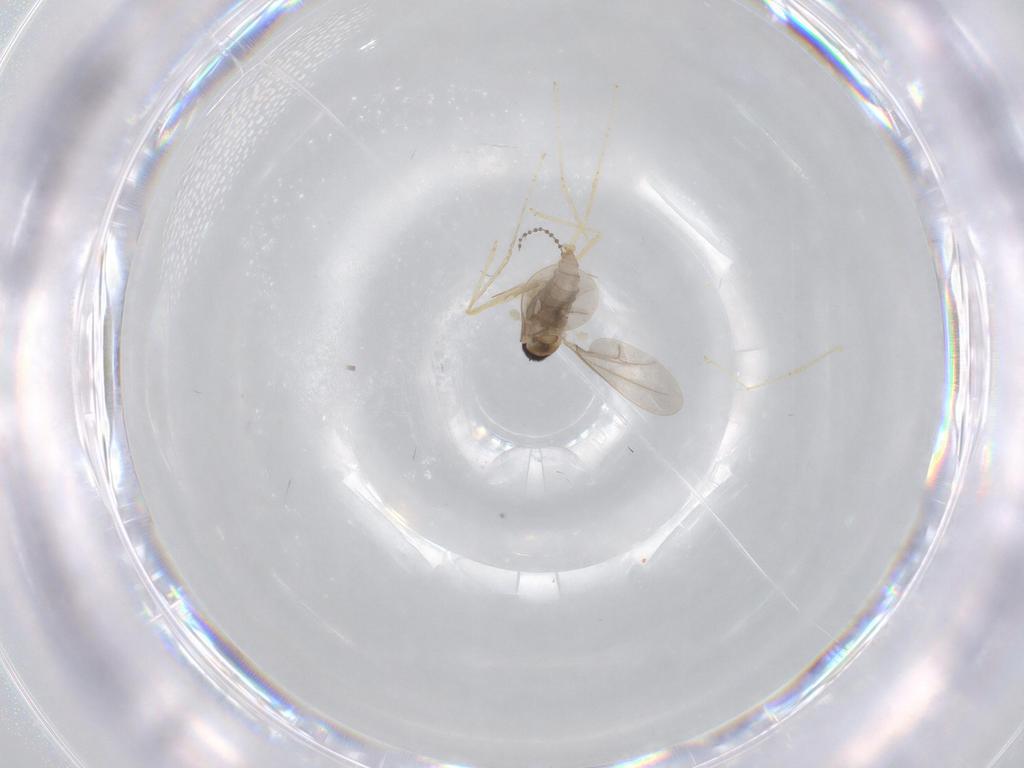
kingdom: Animalia
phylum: Arthropoda
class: Insecta
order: Diptera
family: Cecidomyiidae
